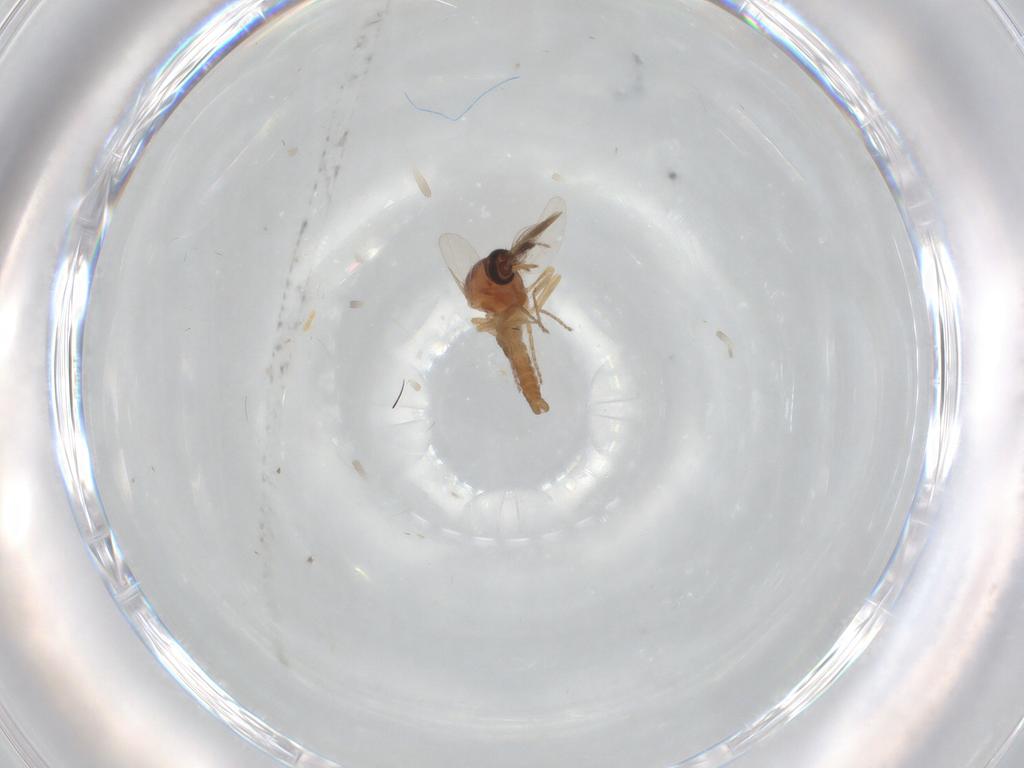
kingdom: Animalia
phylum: Arthropoda
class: Insecta
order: Diptera
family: Ceratopogonidae
